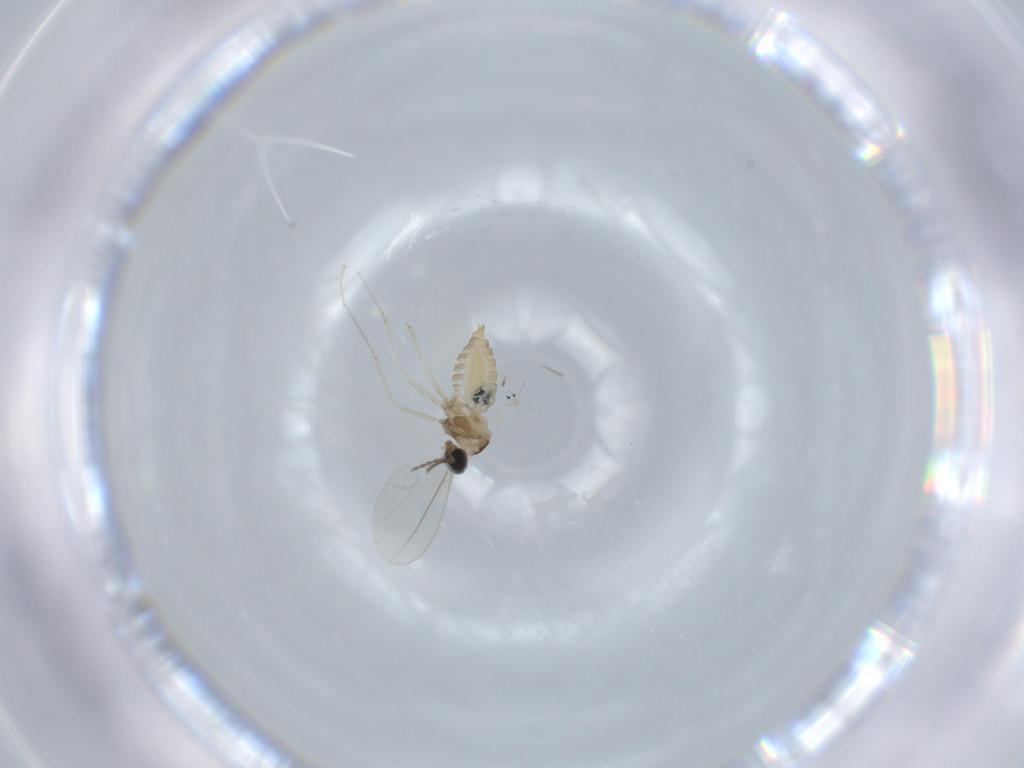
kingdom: Animalia
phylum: Arthropoda
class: Insecta
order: Diptera
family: Cecidomyiidae
